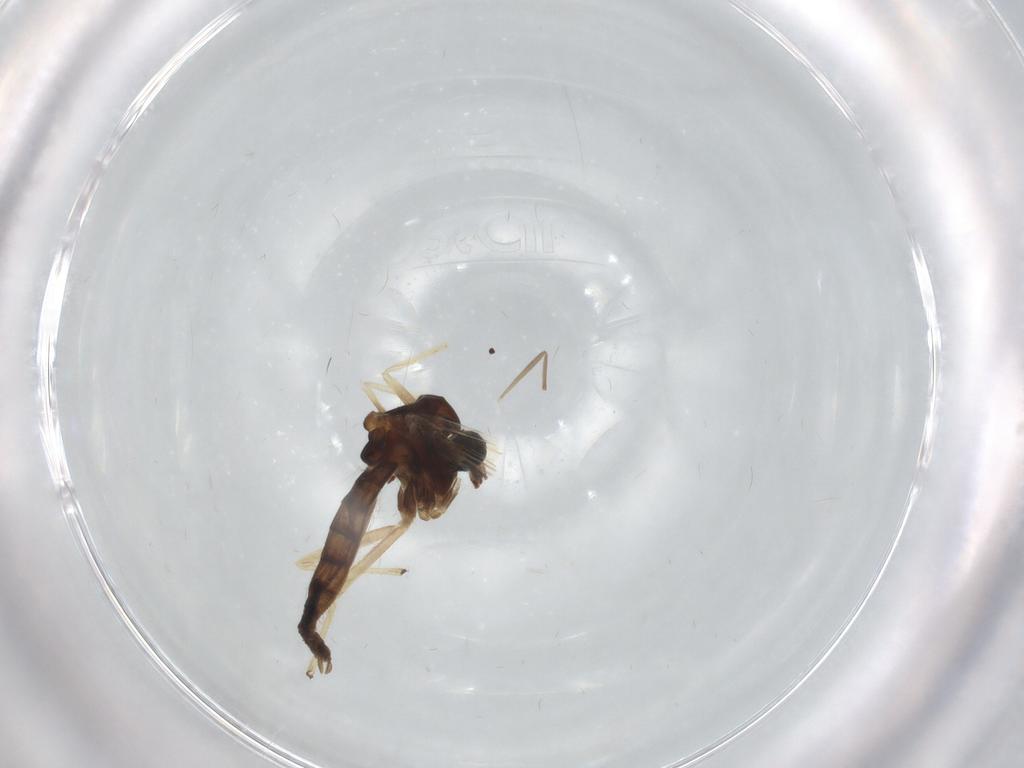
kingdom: Animalia
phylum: Arthropoda
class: Insecta
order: Diptera
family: Chironomidae
